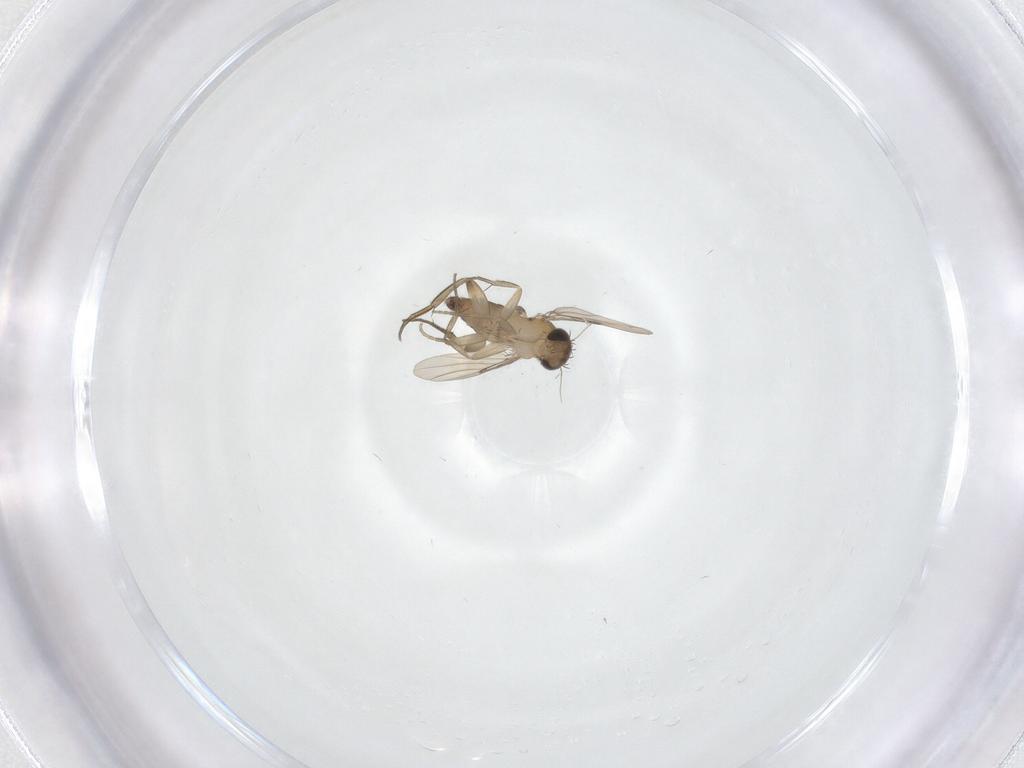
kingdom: Animalia
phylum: Arthropoda
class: Insecta
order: Diptera
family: Phoridae
